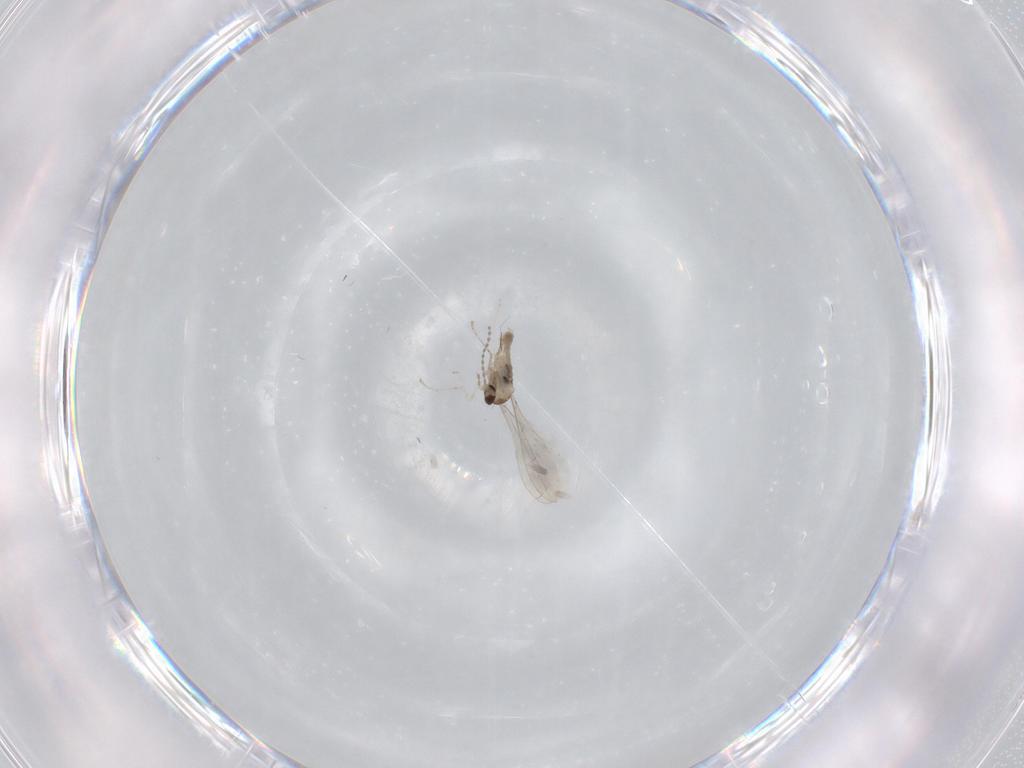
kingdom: Animalia
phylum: Arthropoda
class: Insecta
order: Diptera
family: Cecidomyiidae
